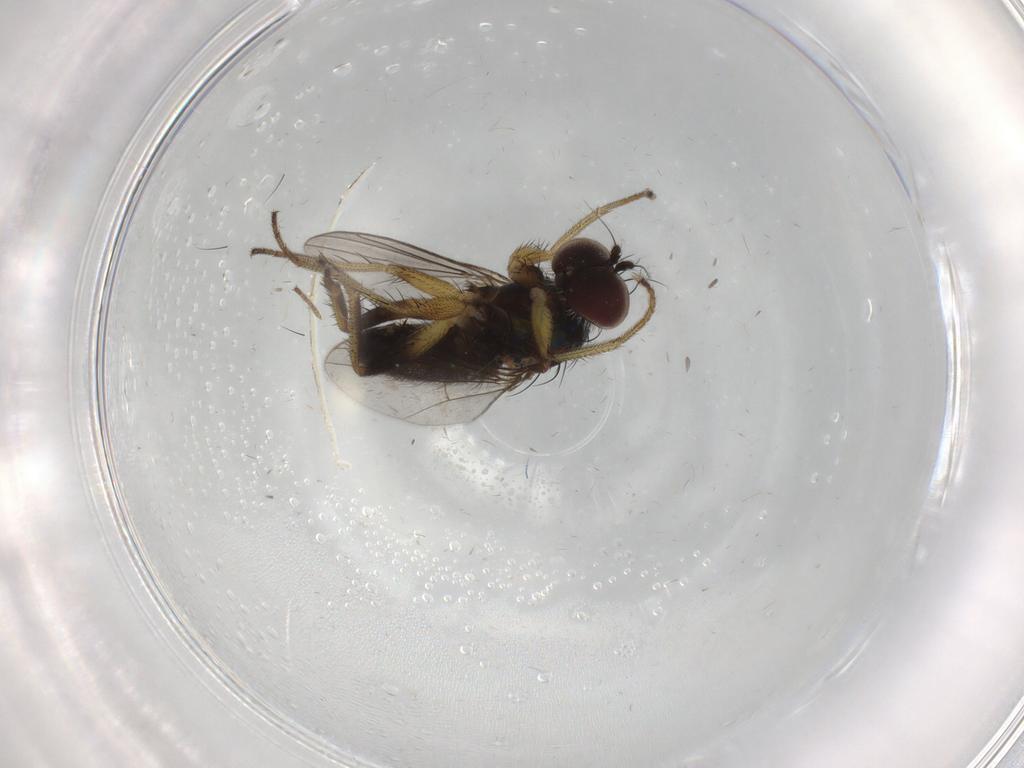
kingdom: Animalia
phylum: Arthropoda
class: Insecta
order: Diptera
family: Dolichopodidae
